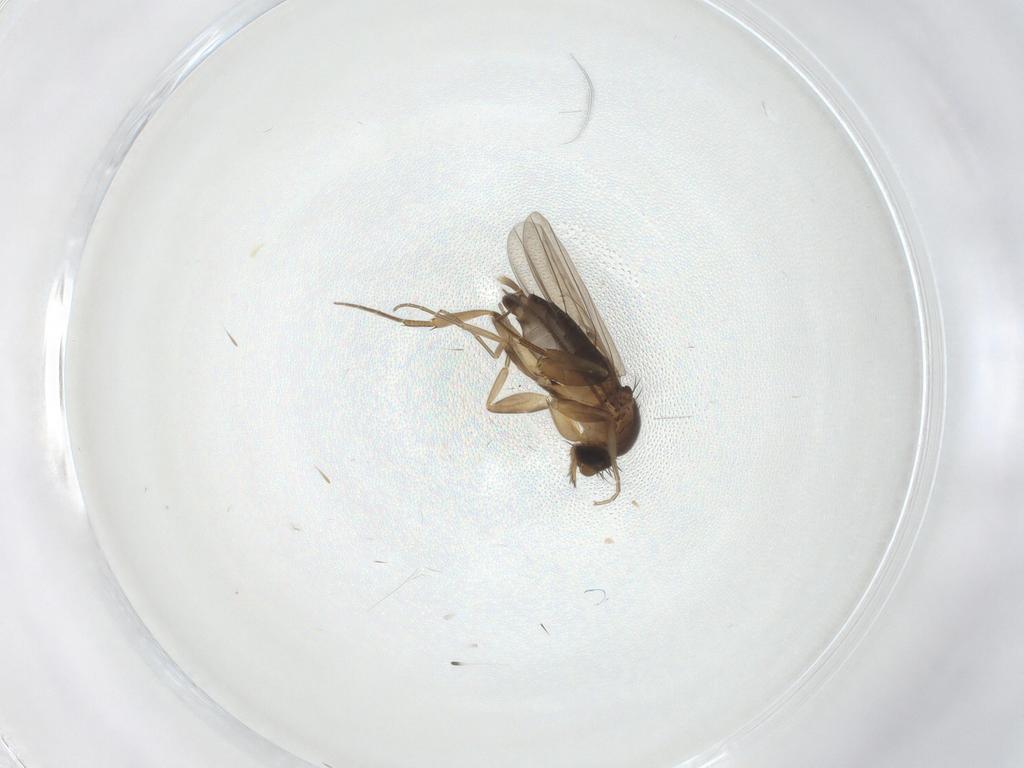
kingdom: Animalia
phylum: Arthropoda
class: Insecta
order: Diptera
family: Phoridae
